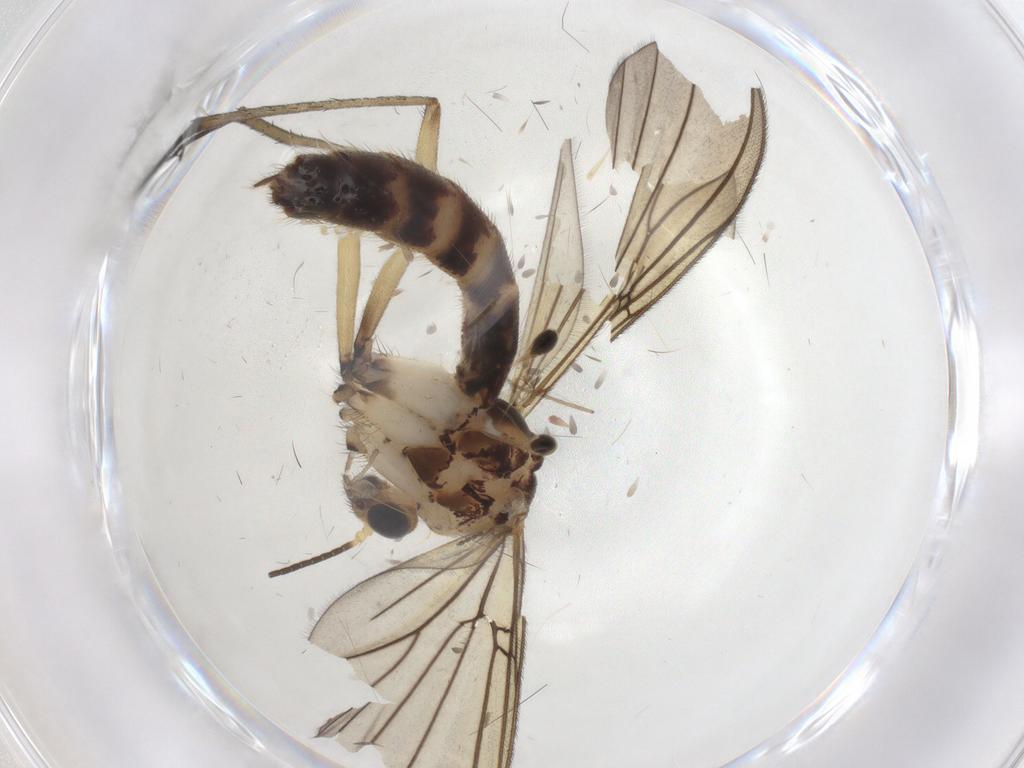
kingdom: Animalia
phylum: Arthropoda
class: Insecta
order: Diptera
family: Mycetophilidae
